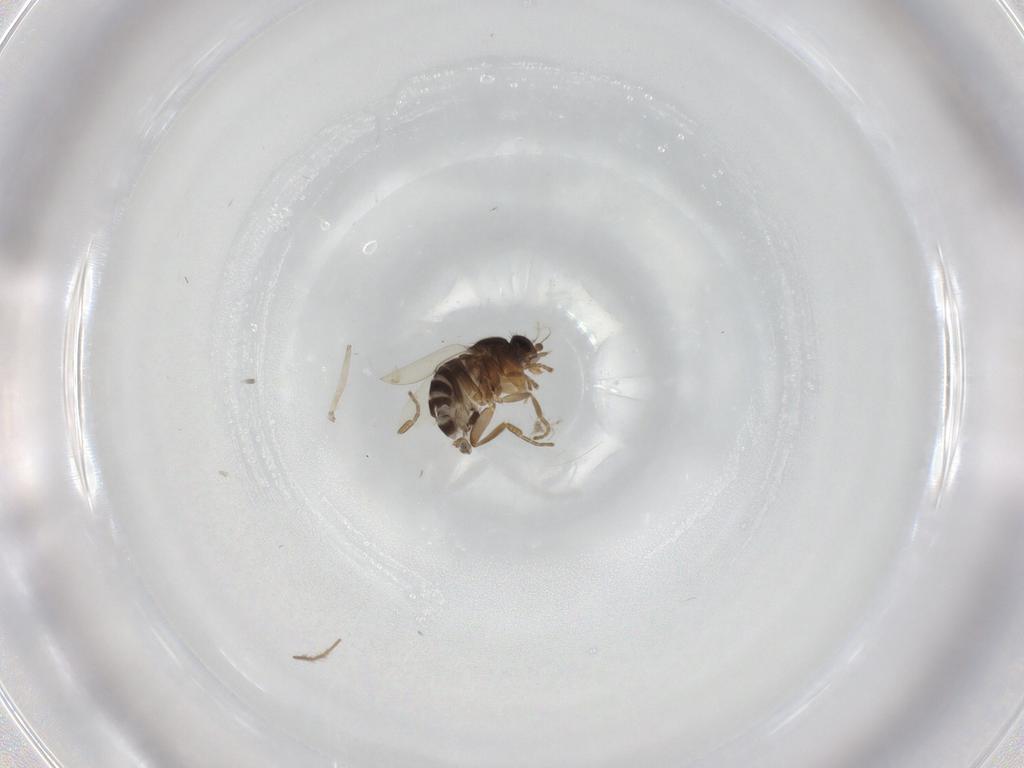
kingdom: Animalia
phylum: Arthropoda
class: Insecta
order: Diptera
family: Phoridae
